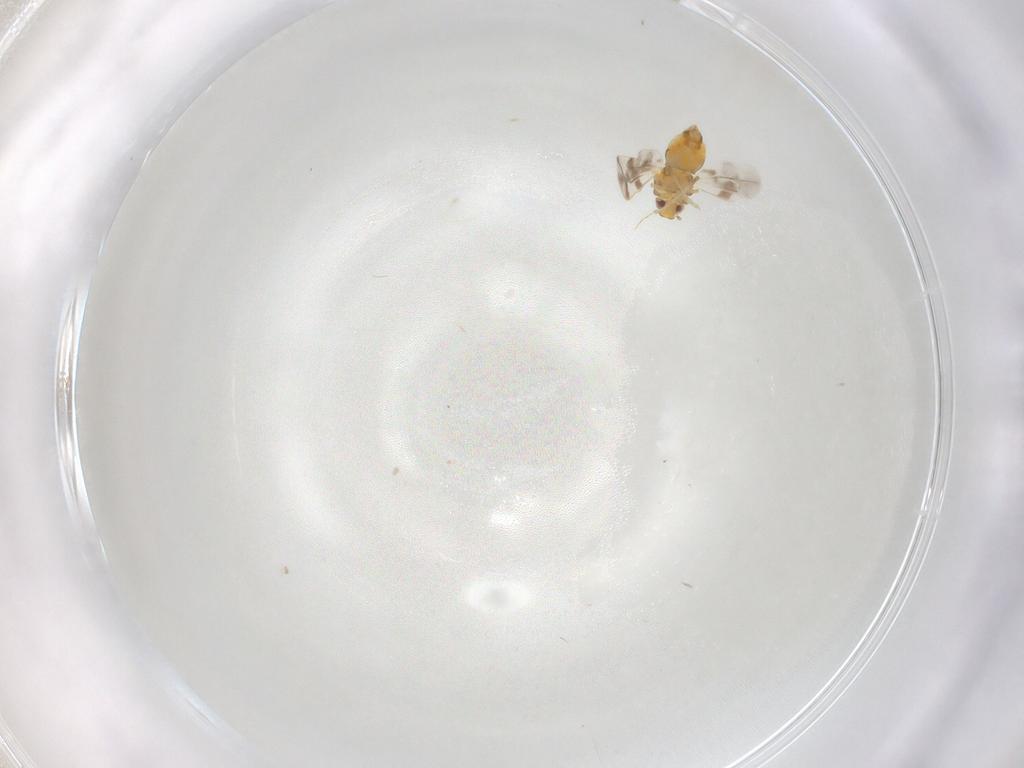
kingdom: Animalia
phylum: Arthropoda
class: Insecta
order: Hemiptera
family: Aleyrodidae
